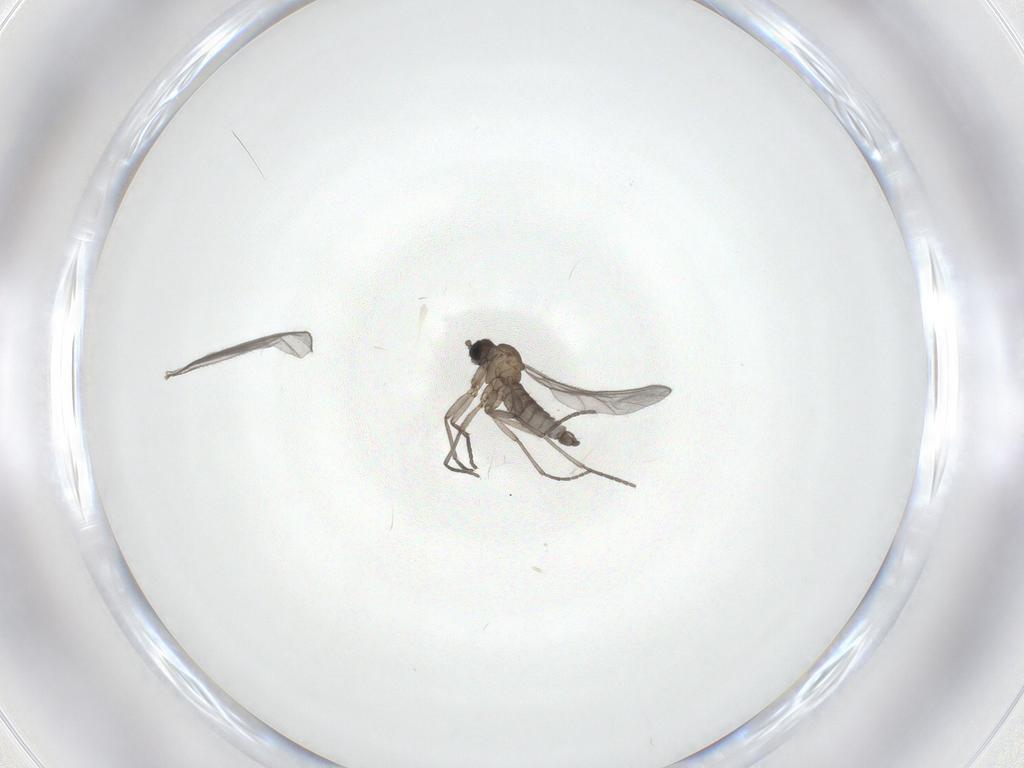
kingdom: Animalia
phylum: Arthropoda
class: Insecta
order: Diptera
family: Sciaridae
